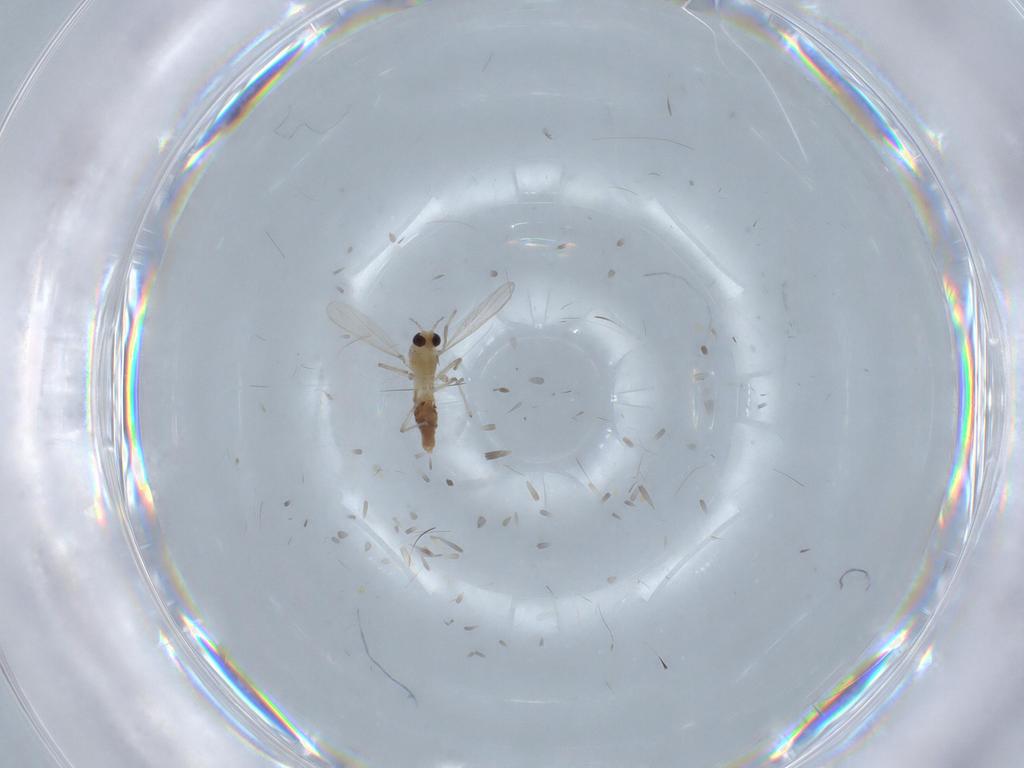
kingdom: Animalia
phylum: Arthropoda
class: Insecta
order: Diptera
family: Chironomidae
